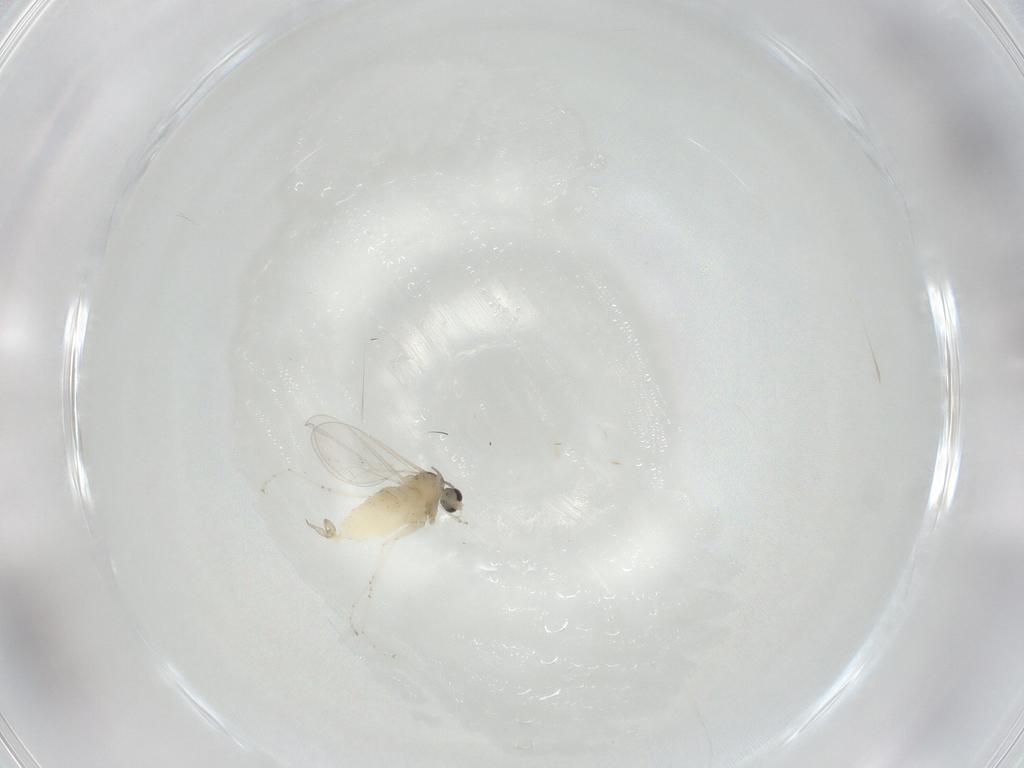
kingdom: Animalia
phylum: Arthropoda
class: Insecta
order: Diptera
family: Cecidomyiidae
